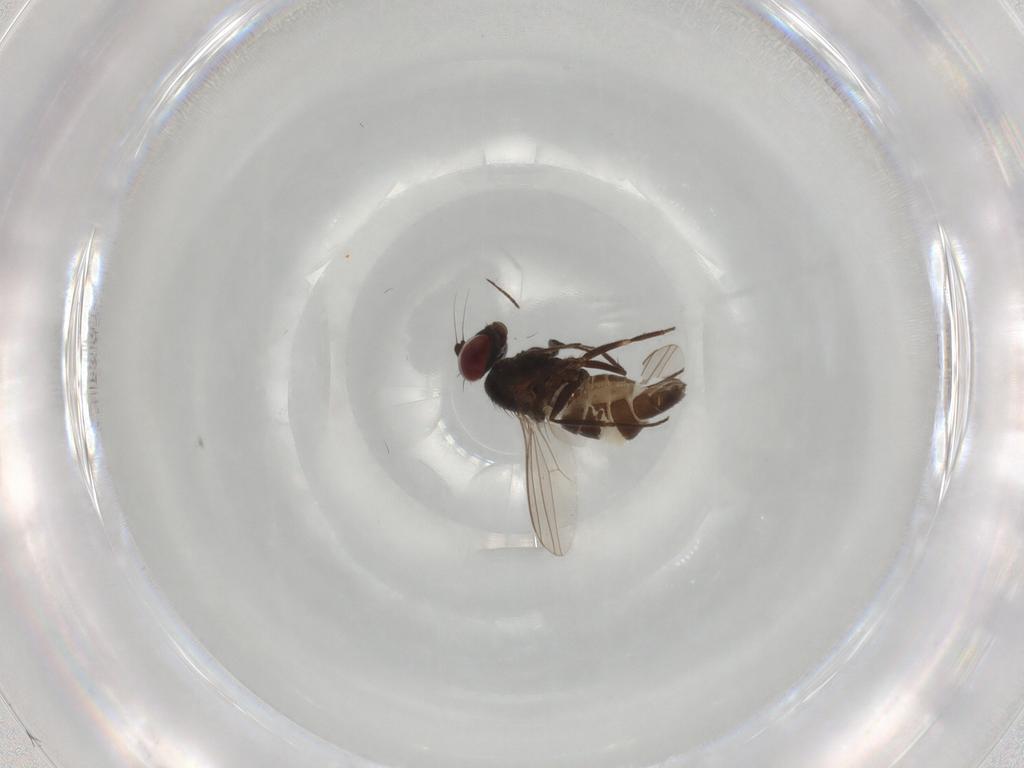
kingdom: Animalia
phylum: Arthropoda
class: Insecta
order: Diptera
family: Dolichopodidae
